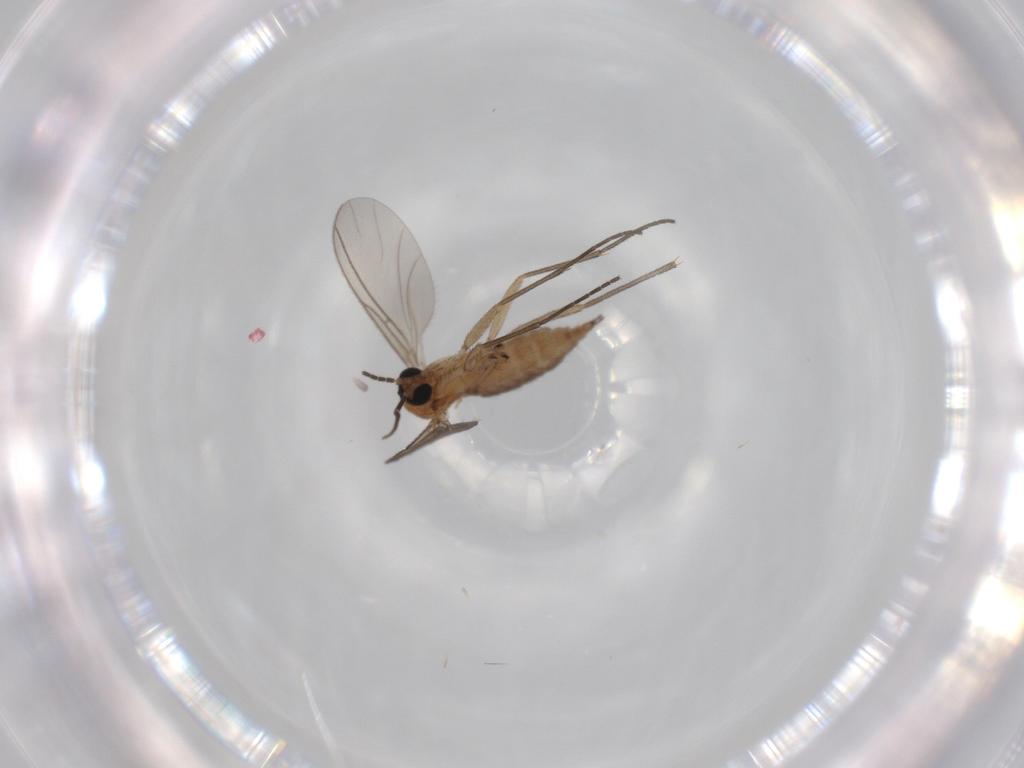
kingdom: Animalia
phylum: Arthropoda
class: Insecta
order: Diptera
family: Sciaridae
